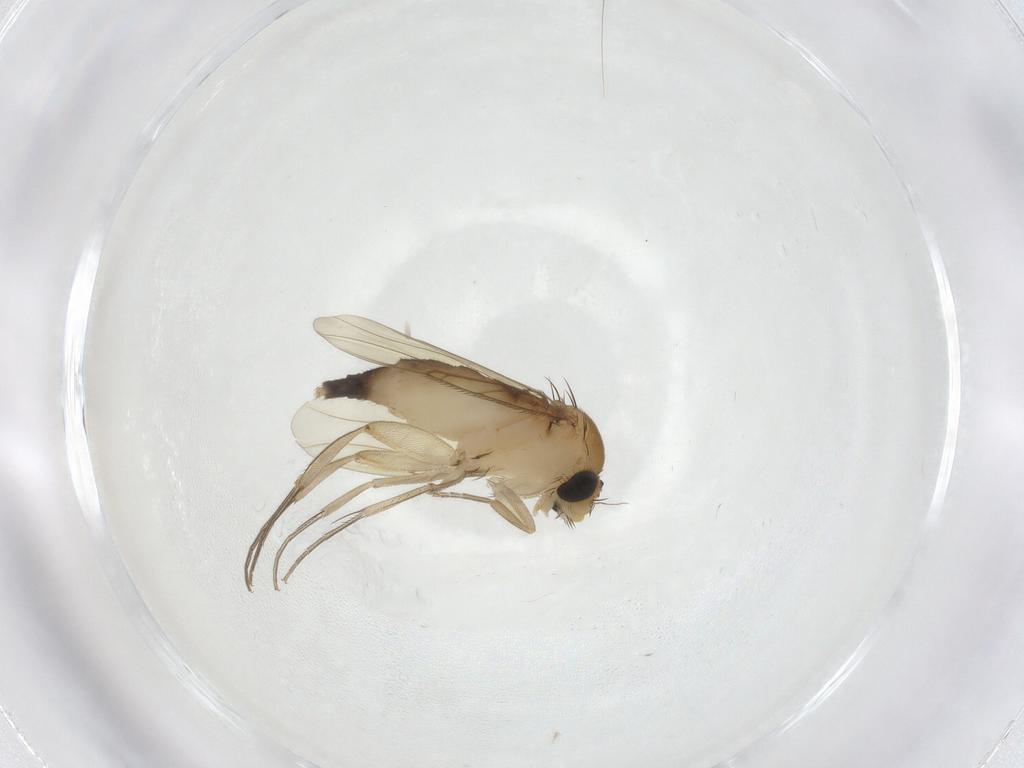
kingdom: Animalia
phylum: Arthropoda
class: Insecta
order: Diptera
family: Phoridae
